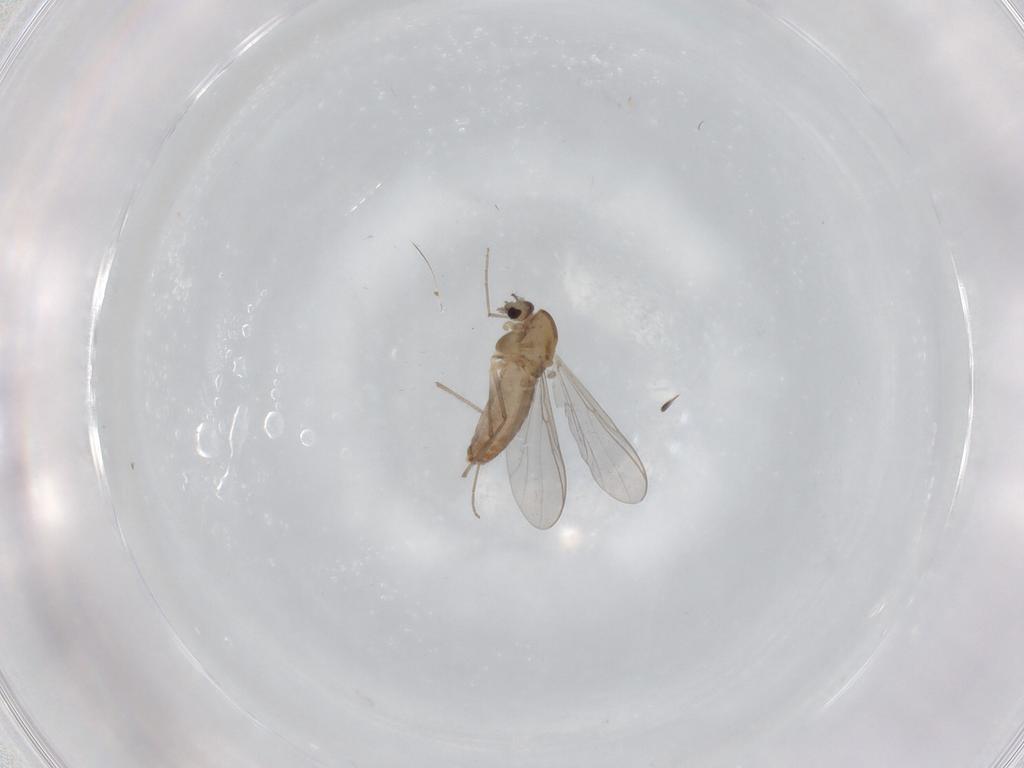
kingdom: Animalia
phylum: Arthropoda
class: Insecta
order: Diptera
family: Chironomidae
